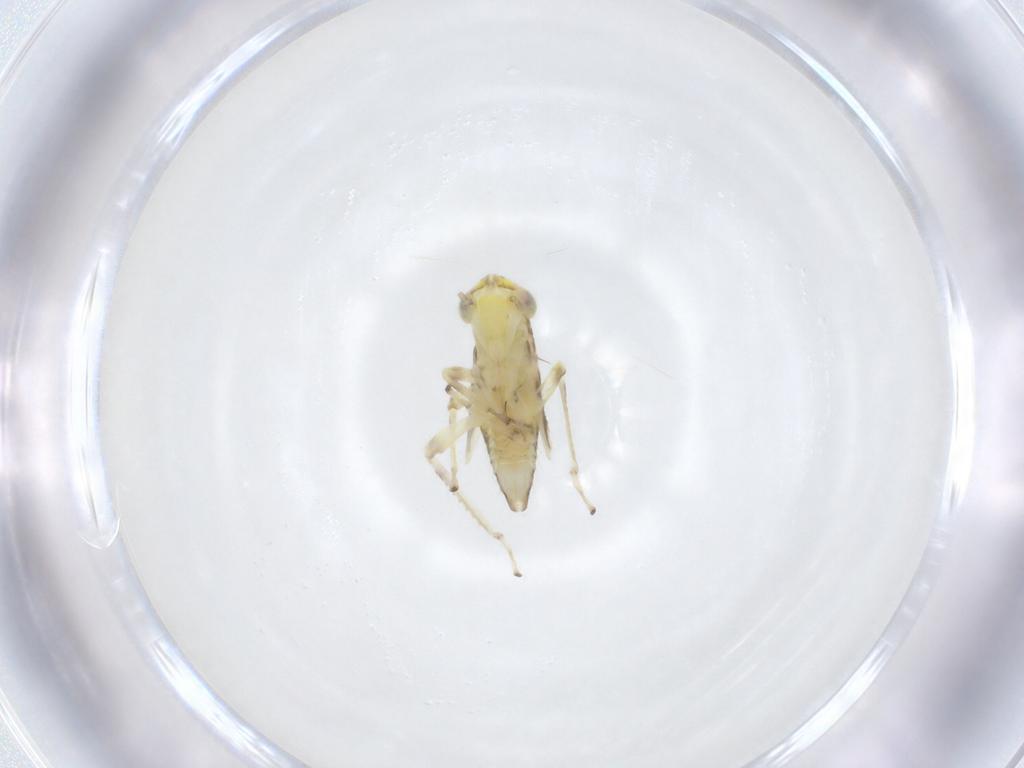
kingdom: Animalia
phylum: Arthropoda
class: Insecta
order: Hemiptera
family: Cicadellidae
